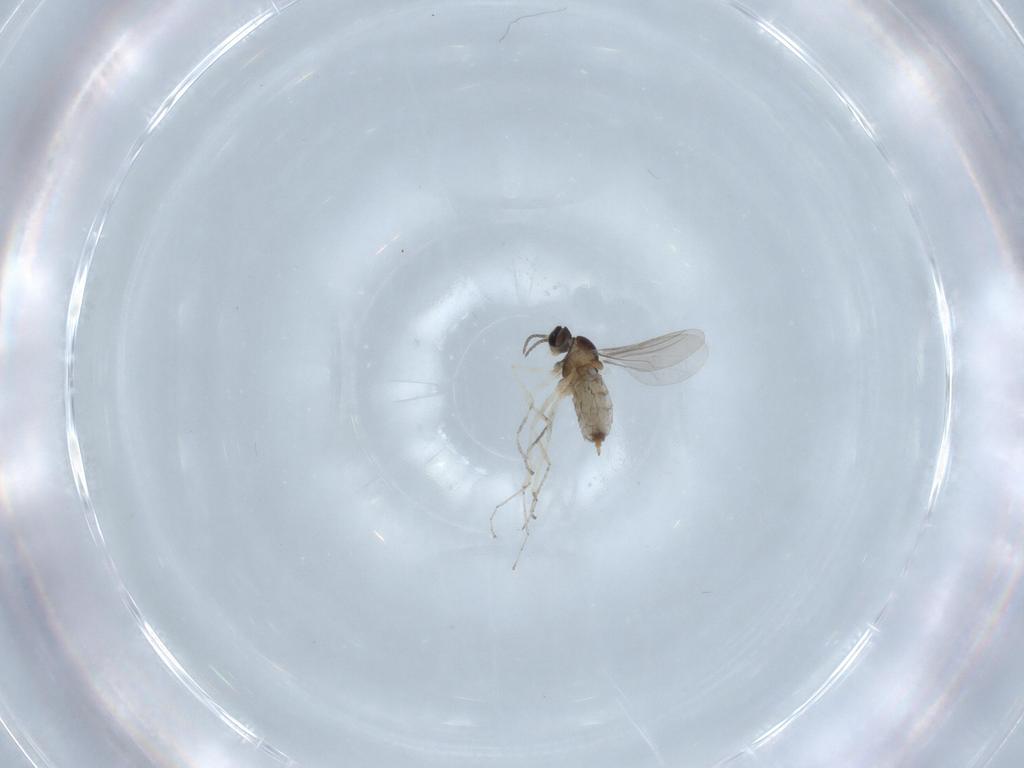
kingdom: Animalia
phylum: Arthropoda
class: Insecta
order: Diptera
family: Cecidomyiidae
